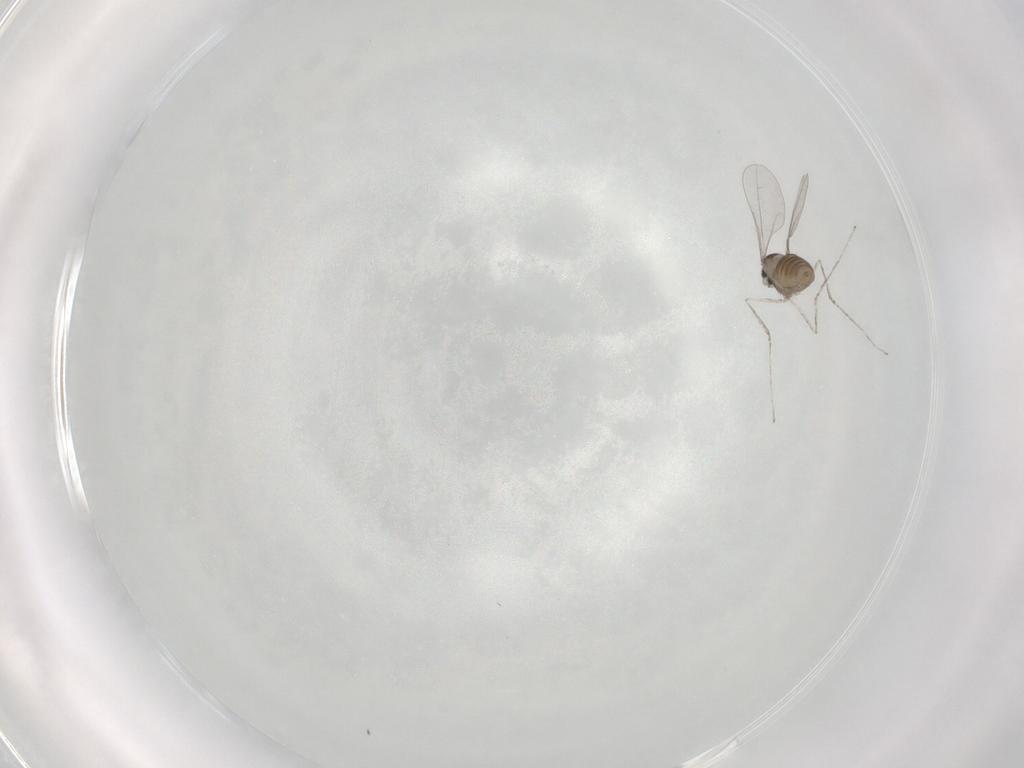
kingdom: Animalia
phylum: Arthropoda
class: Insecta
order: Diptera
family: Cecidomyiidae
